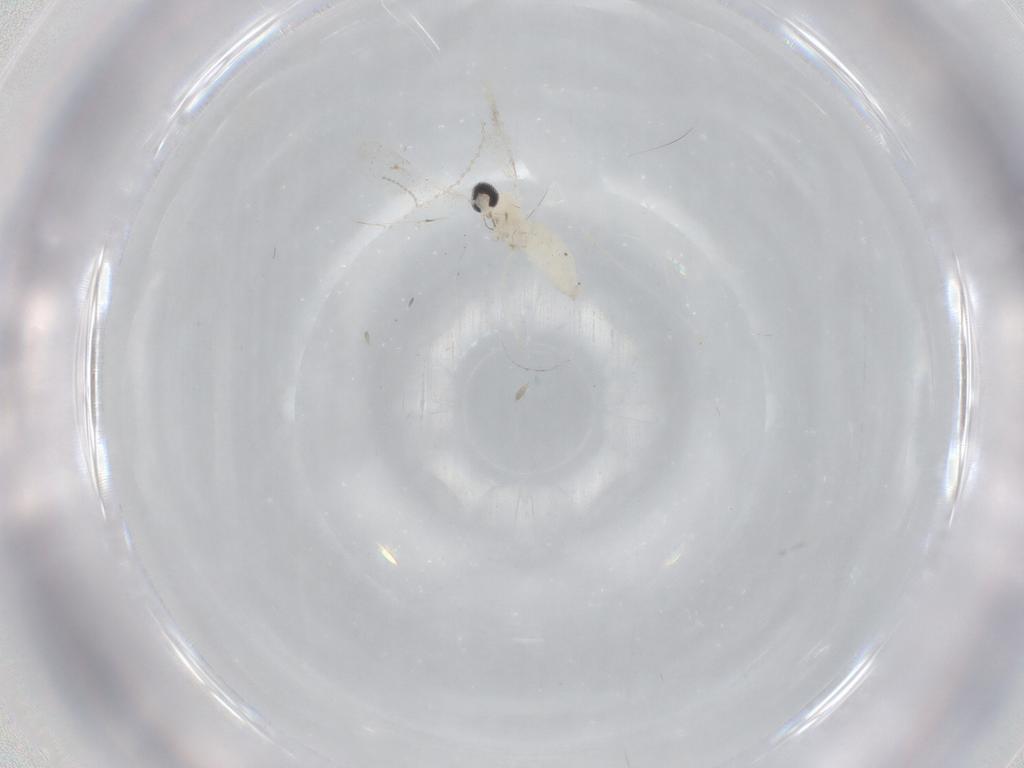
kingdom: Animalia
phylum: Arthropoda
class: Insecta
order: Diptera
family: Cecidomyiidae
